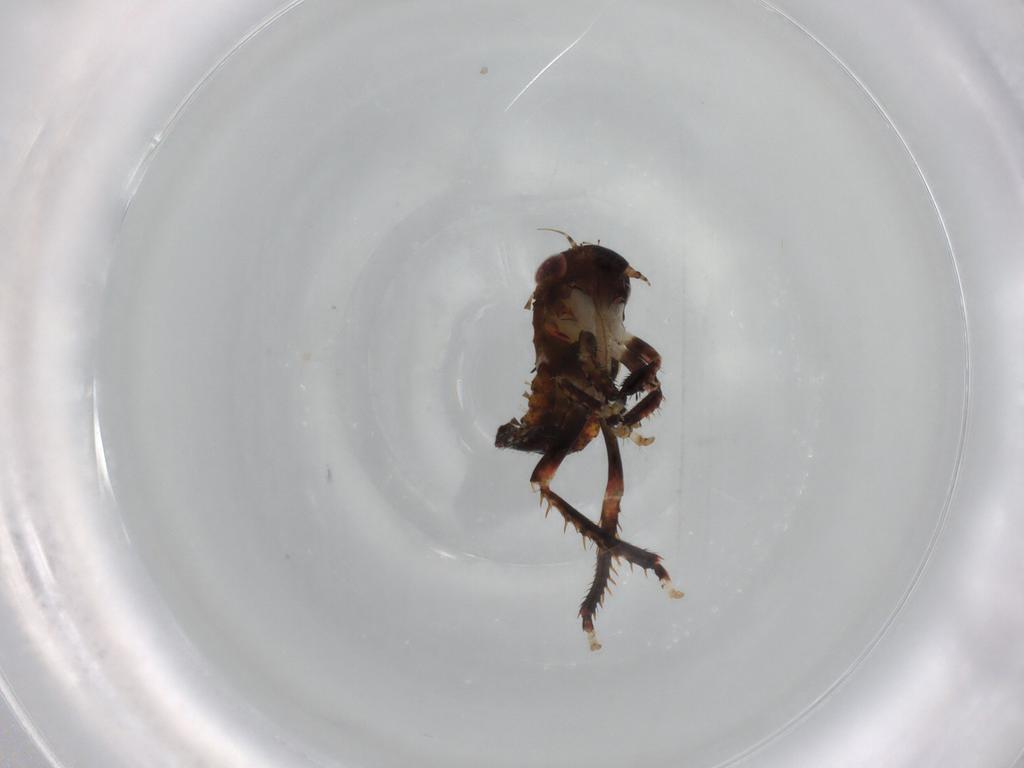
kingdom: Animalia
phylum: Arthropoda
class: Insecta
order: Hemiptera
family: Cicadellidae
